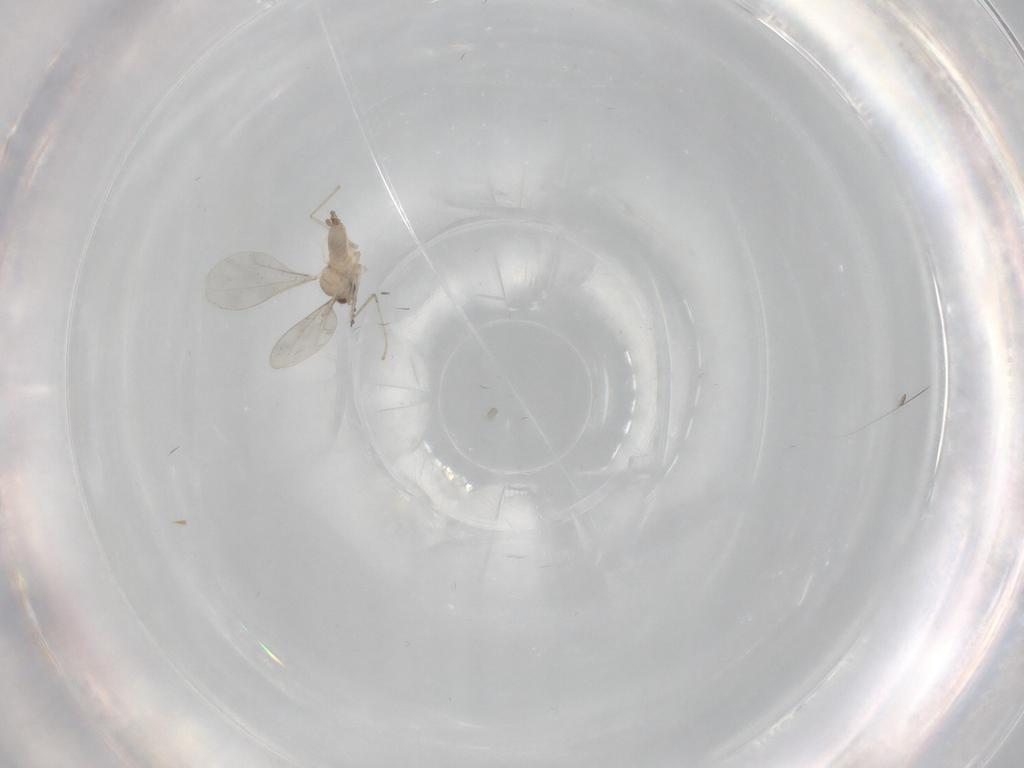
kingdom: Animalia
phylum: Arthropoda
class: Insecta
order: Diptera
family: Cecidomyiidae
